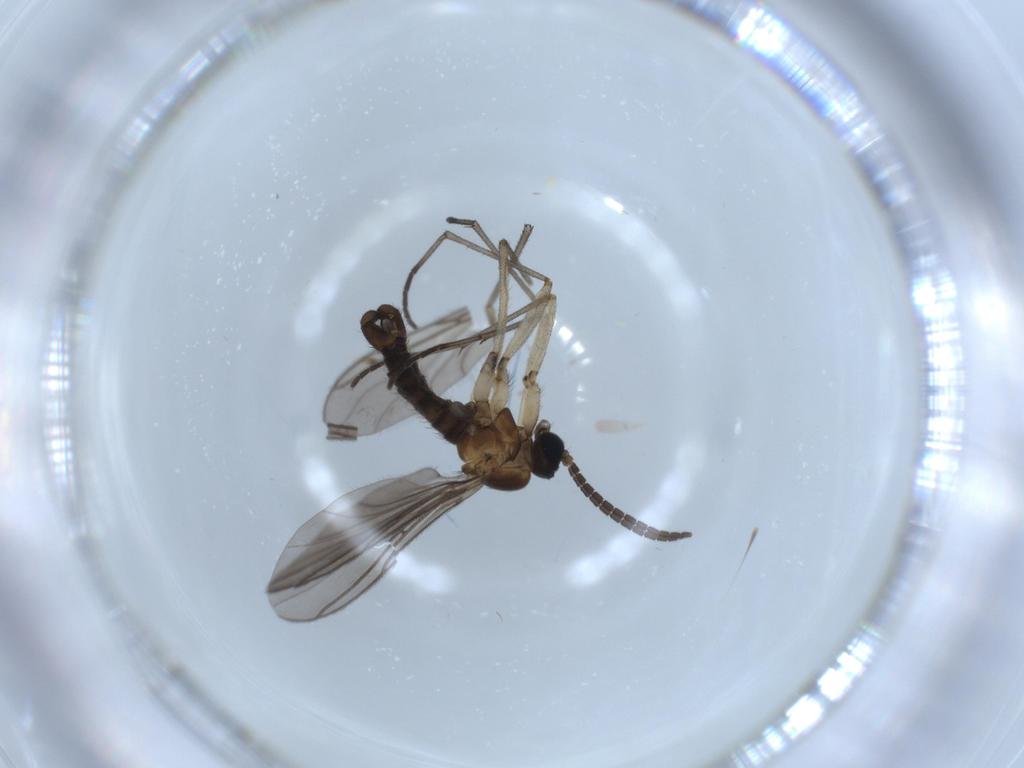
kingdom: Animalia
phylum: Arthropoda
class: Insecta
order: Diptera
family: Sciaridae
